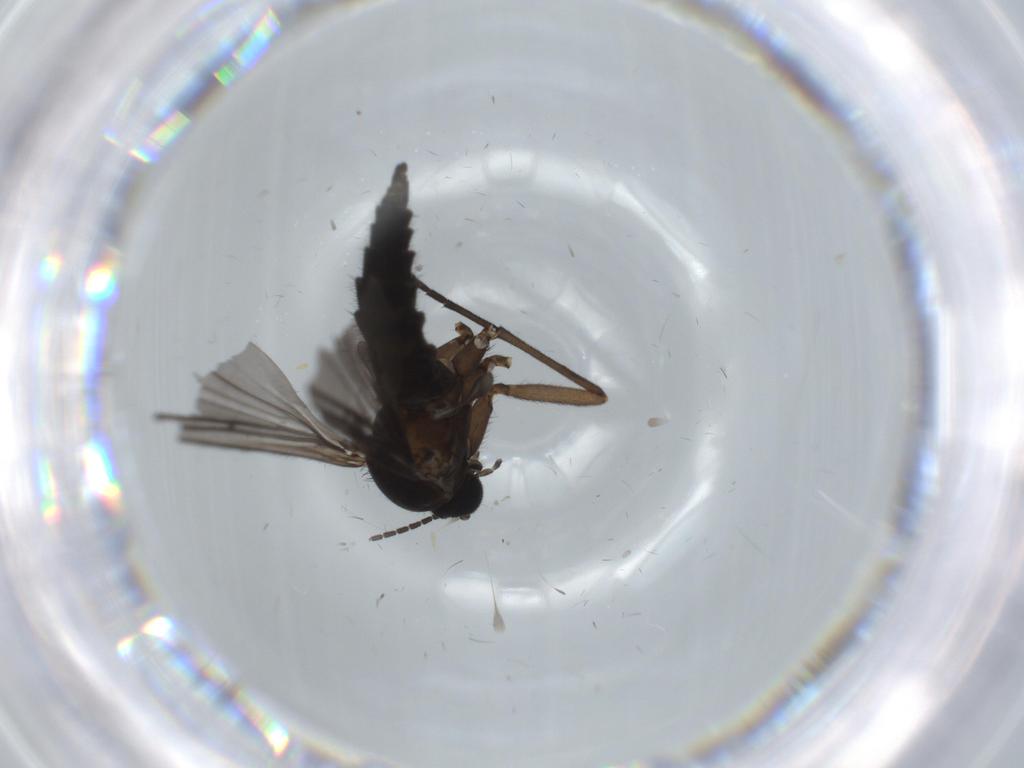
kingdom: Animalia
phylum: Arthropoda
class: Insecta
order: Diptera
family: Sciaridae
